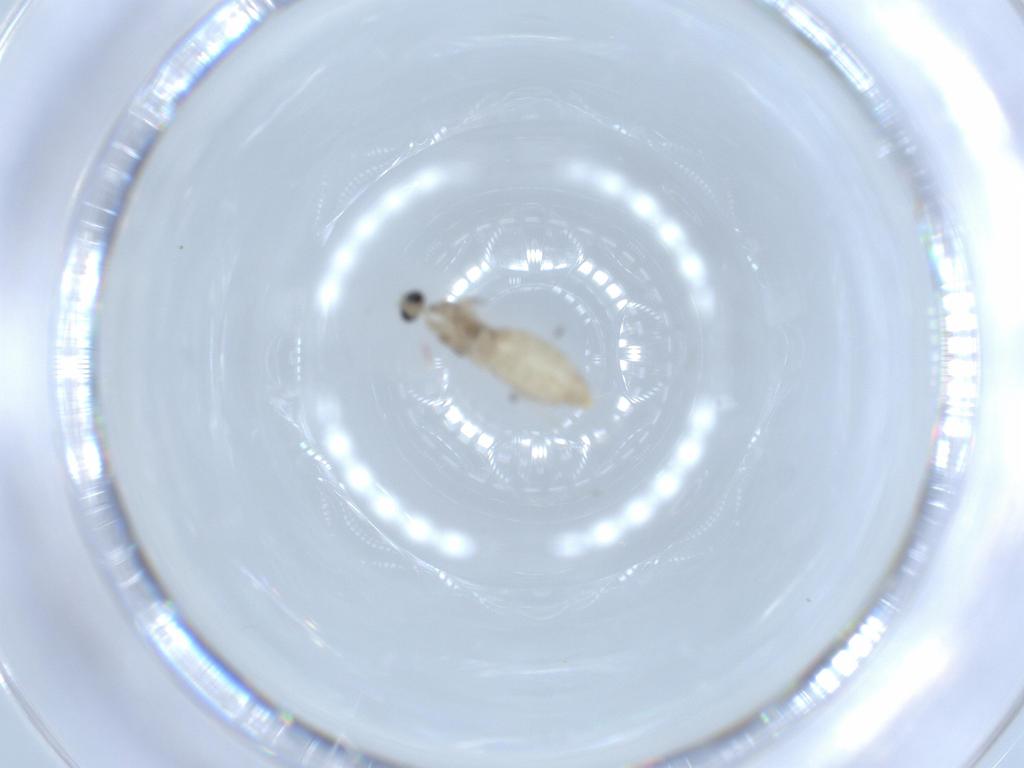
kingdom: Animalia
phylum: Arthropoda
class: Insecta
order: Diptera
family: Cecidomyiidae
